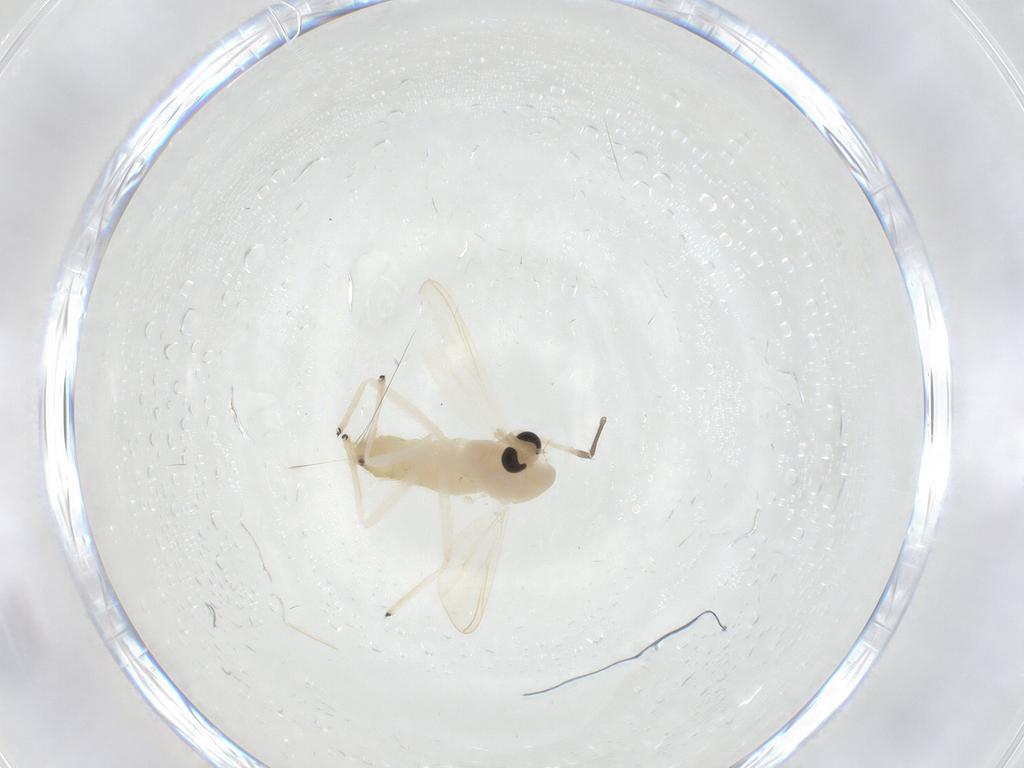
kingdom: Animalia
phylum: Arthropoda
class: Insecta
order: Diptera
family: Chironomidae
